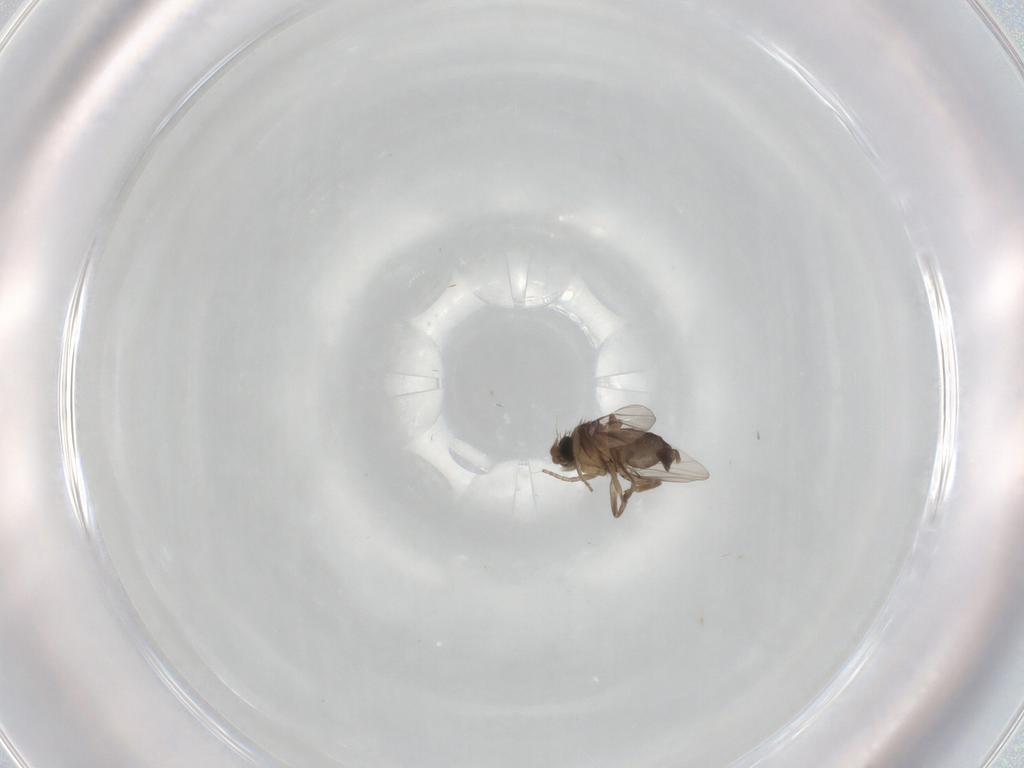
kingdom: Animalia
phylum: Arthropoda
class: Insecta
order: Diptera
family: Phoridae
